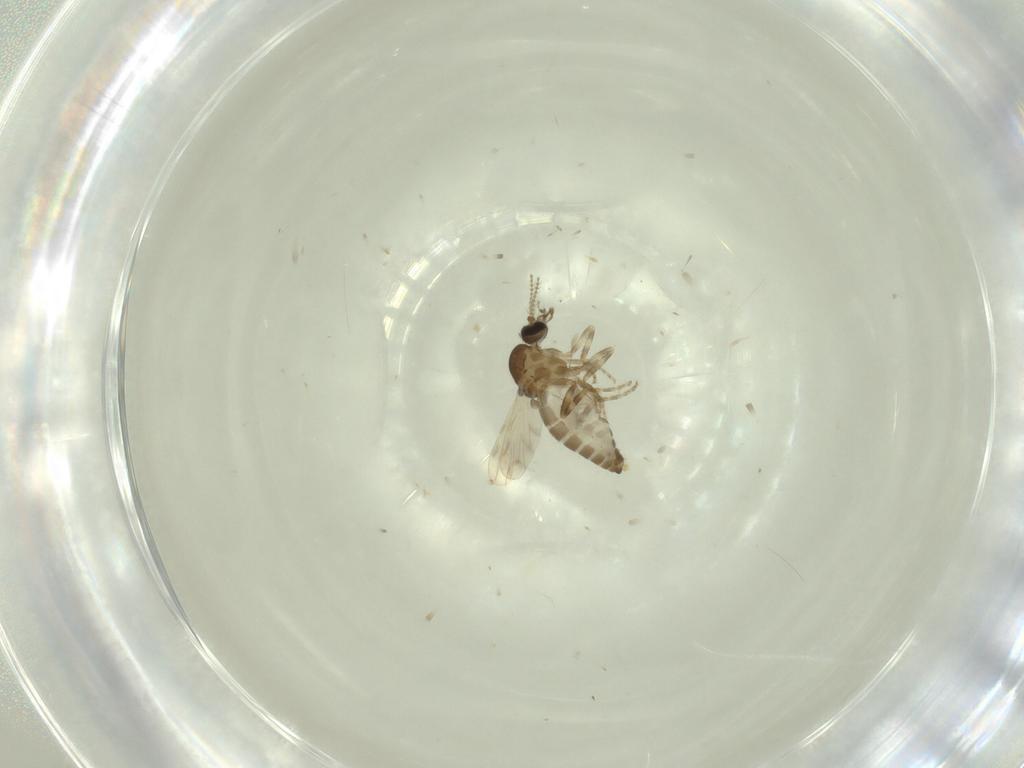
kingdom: Animalia
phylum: Arthropoda
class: Insecta
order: Diptera
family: Ceratopogonidae
